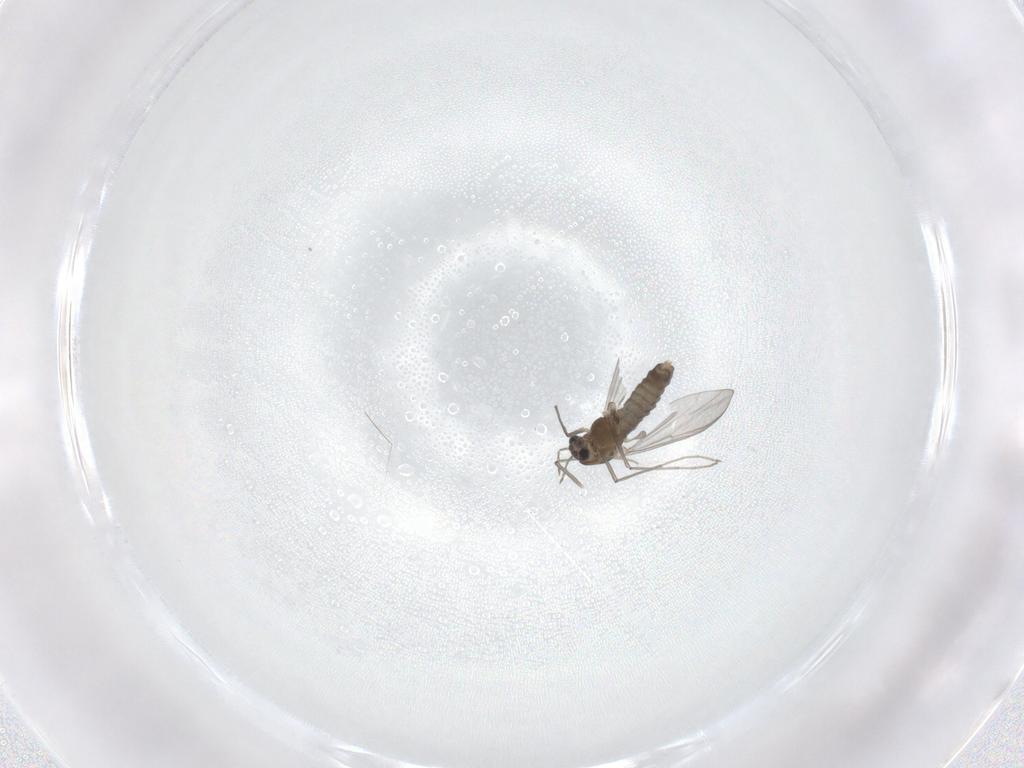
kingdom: Animalia
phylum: Arthropoda
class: Insecta
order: Diptera
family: Chironomidae
